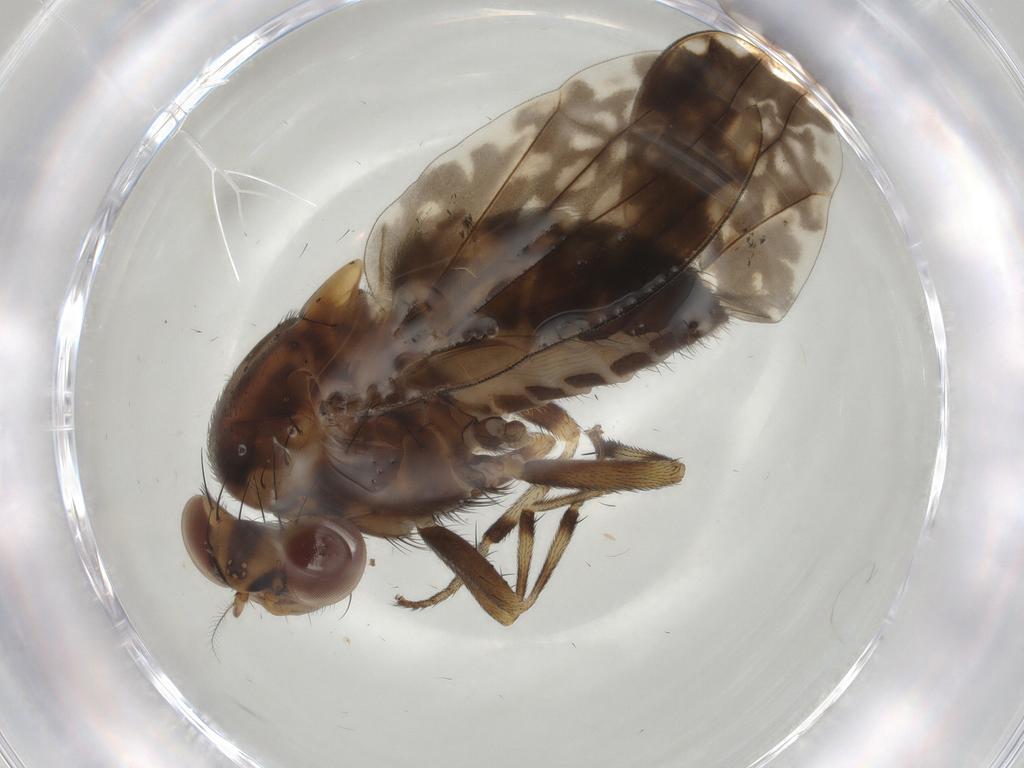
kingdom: Animalia
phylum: Arthropoda
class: Insecta
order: Diptera
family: Lauxaniidae
